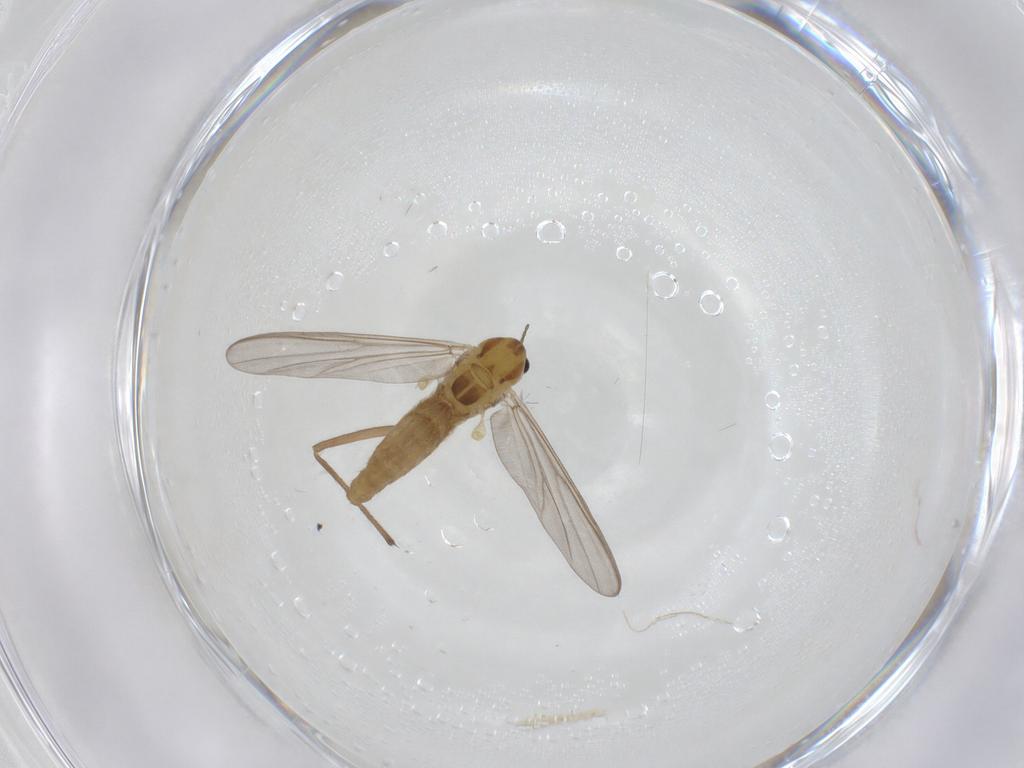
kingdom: Animalia
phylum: Arthropoda
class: Insecta
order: Diptera
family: Chironomidae
